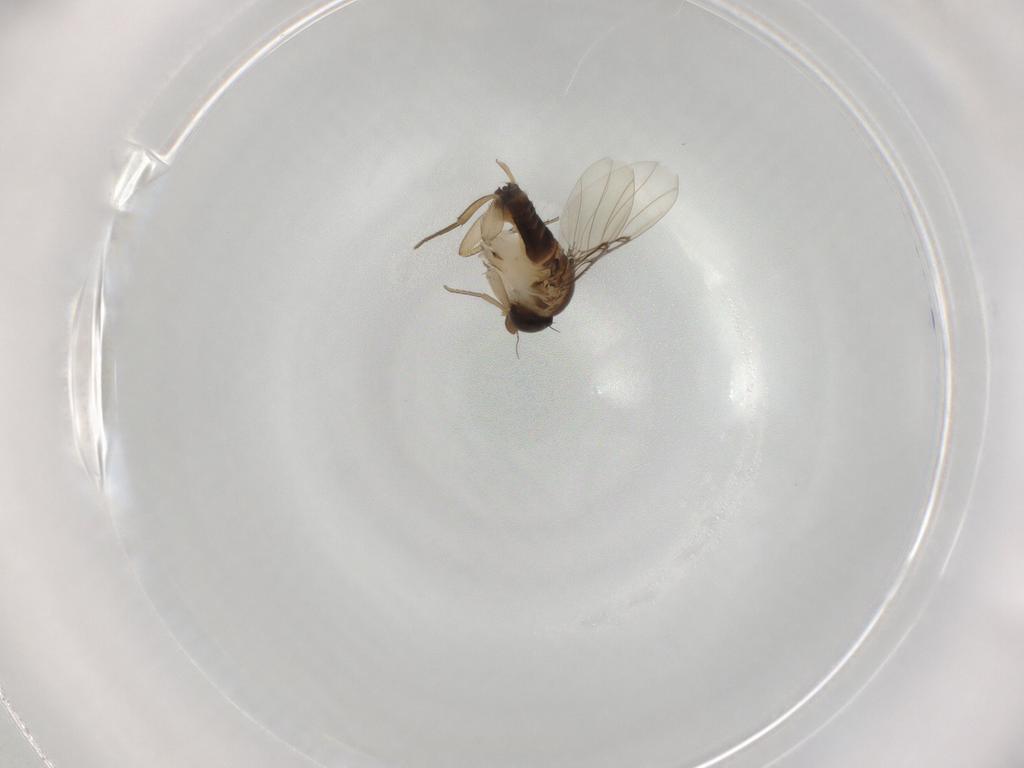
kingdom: Animalia
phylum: Arthropoda
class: Insecta
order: Diptera
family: Phoridae
